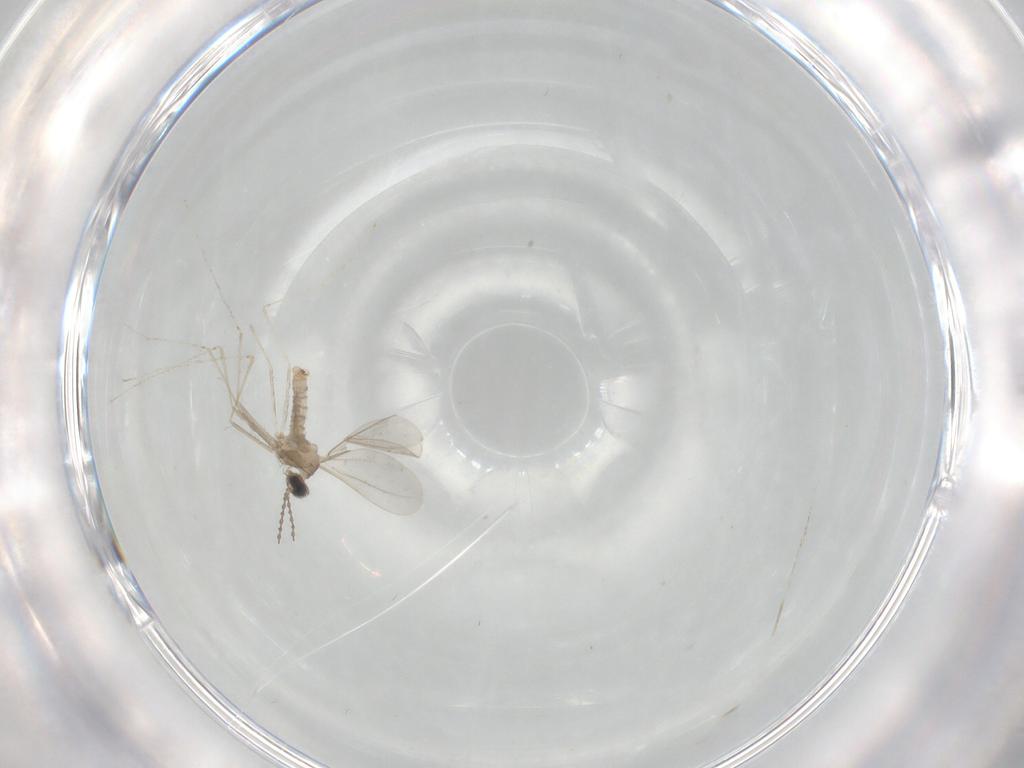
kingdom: Animalia
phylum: Arthropoda
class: Insecta
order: Diptera
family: Cecidomyiidae
